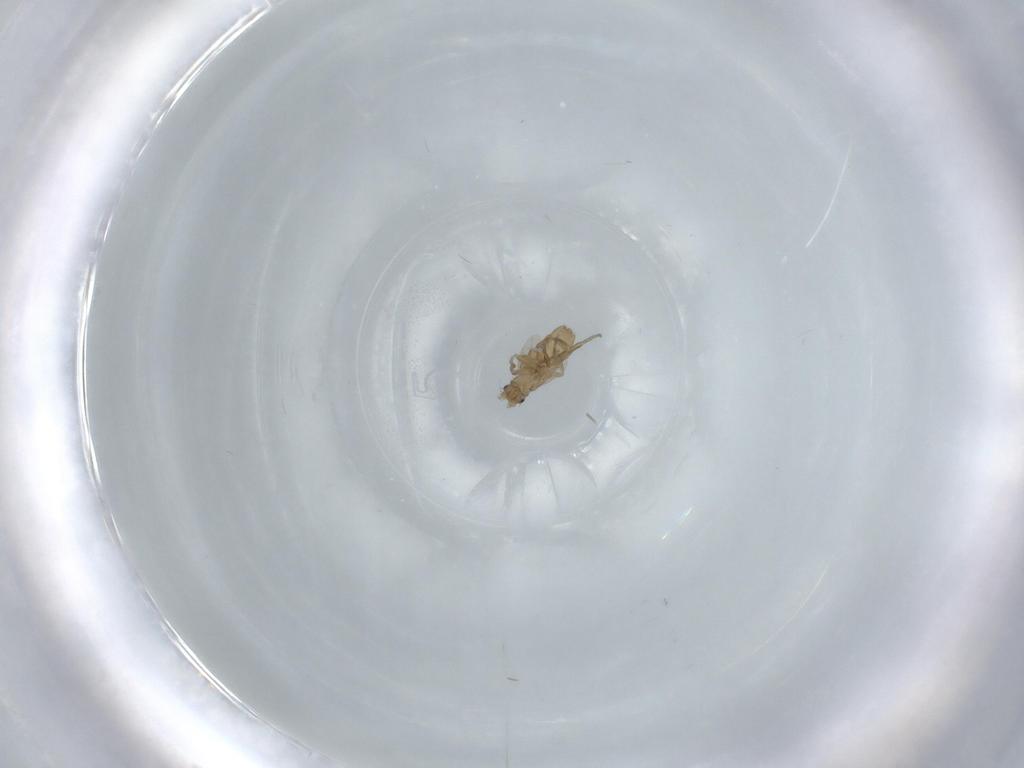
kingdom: Animalia
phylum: Arthropoda
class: Insecta
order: Diptera
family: Phoridae
